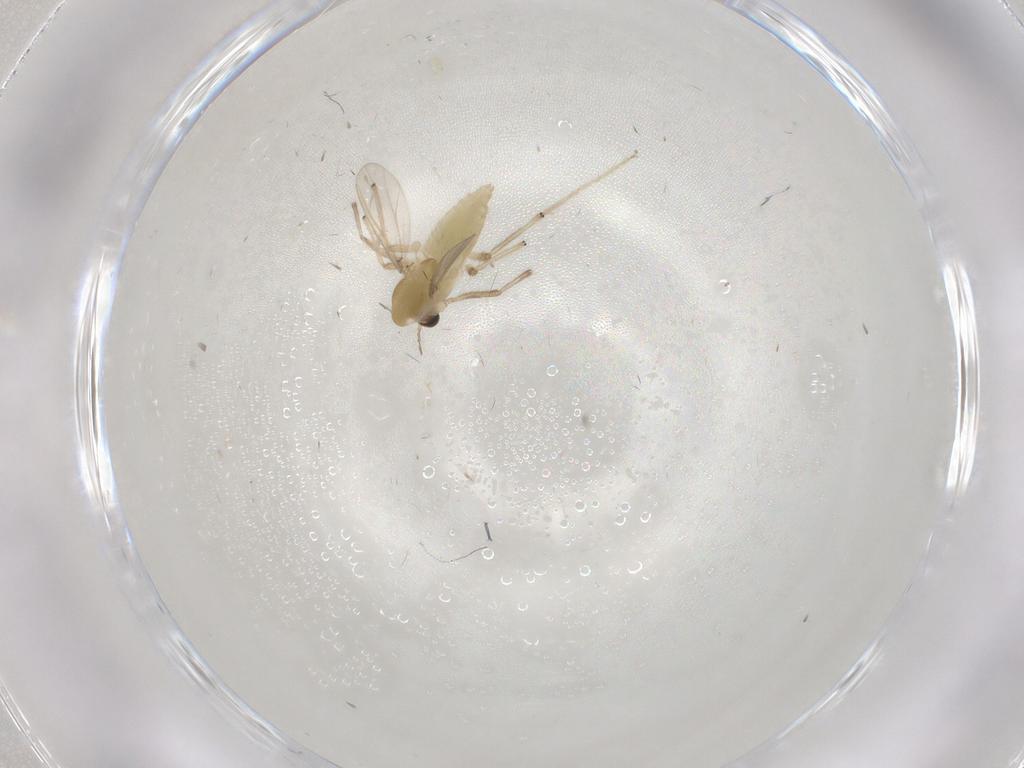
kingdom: Animalia
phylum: Arthropoda
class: Insecta
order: Diptera
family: Chironomidae
